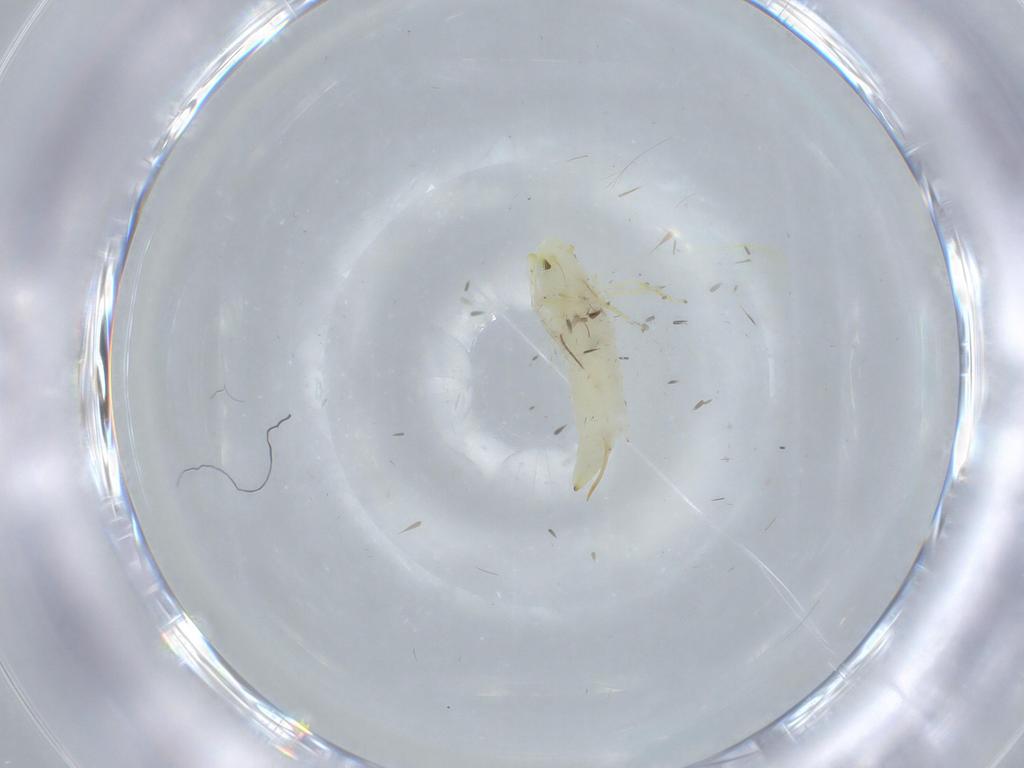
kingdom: Animalia
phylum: Arthropoda
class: Insecta
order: Hemiptera
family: Cicadellidae
